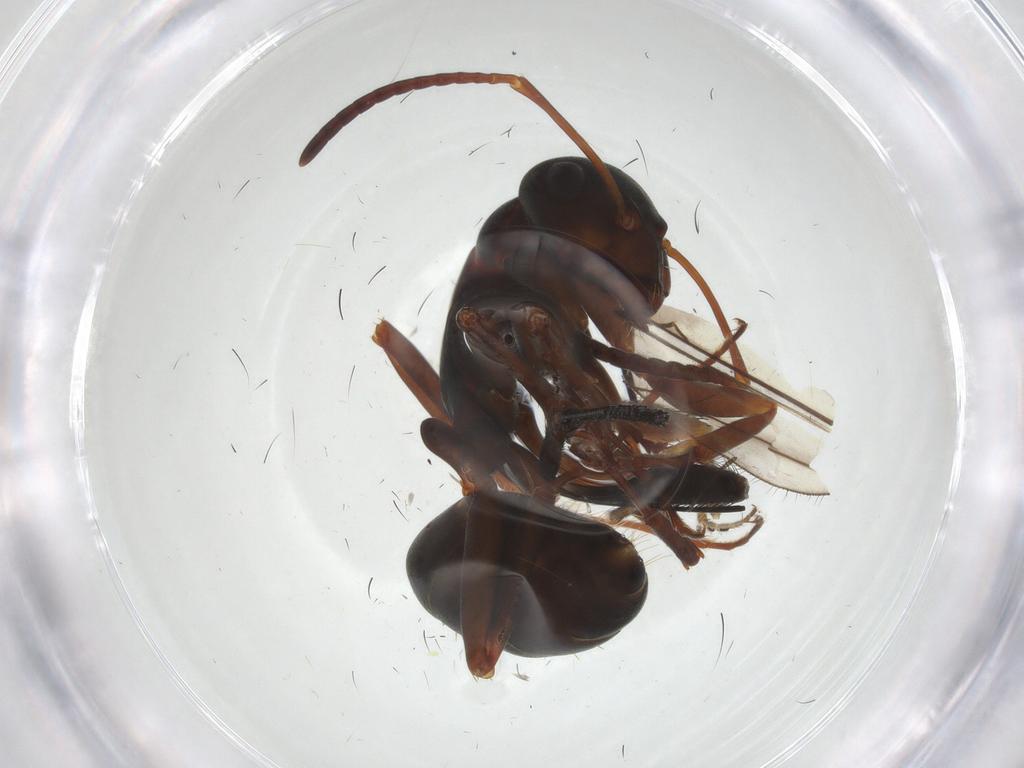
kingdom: Animalia
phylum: Arthropoda
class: Insecta
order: Hymenoptera
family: Formicidae
